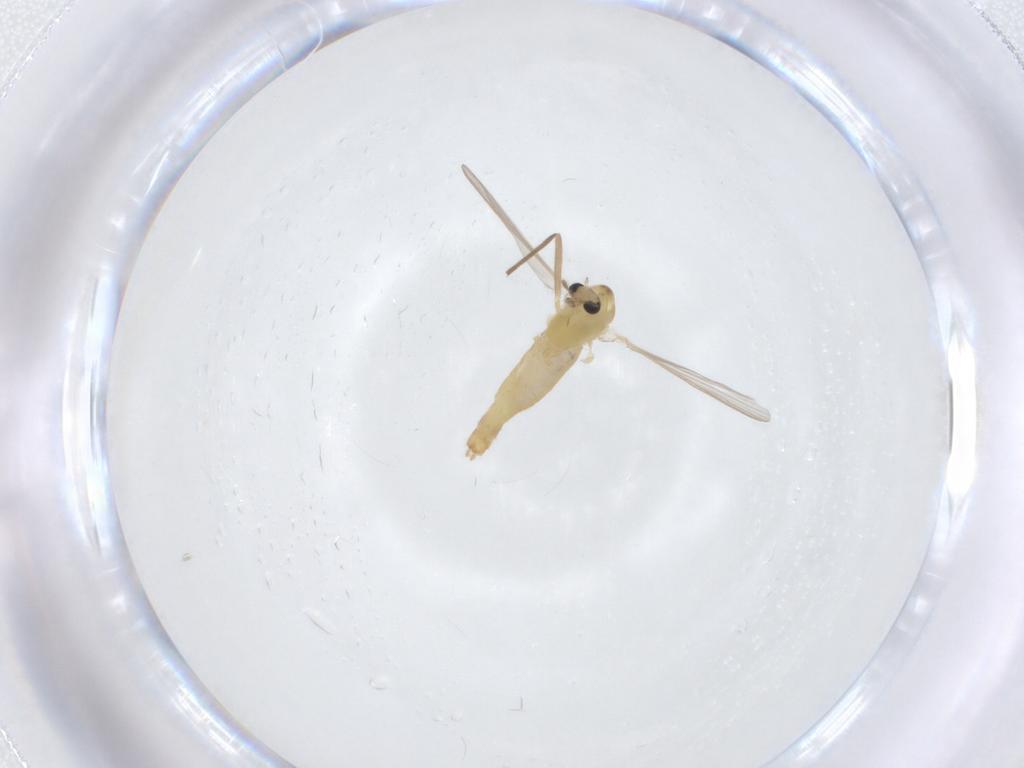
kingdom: Animalia
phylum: Arthropoda
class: Insecta
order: Diptera
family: Chironomidae
